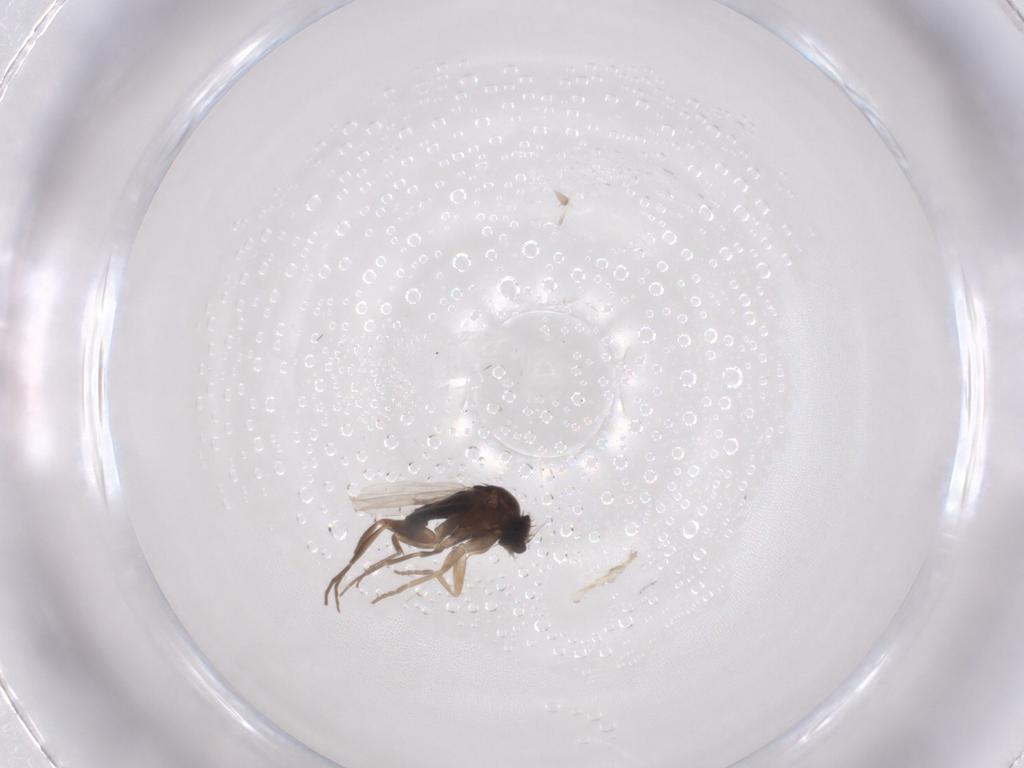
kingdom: Animalia
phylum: Arthropoda
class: Insecta
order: Diptera
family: Phoridae
